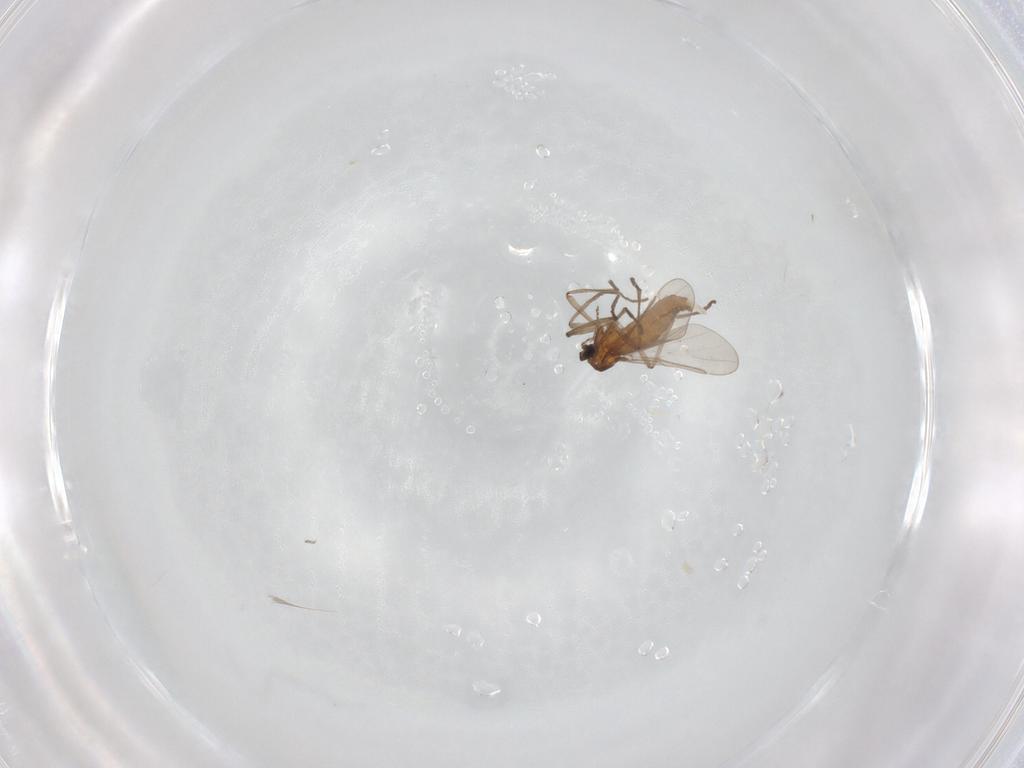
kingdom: Animalia
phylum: Arthropoda
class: Insecta
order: Diptera
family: Cecidomyiidae
